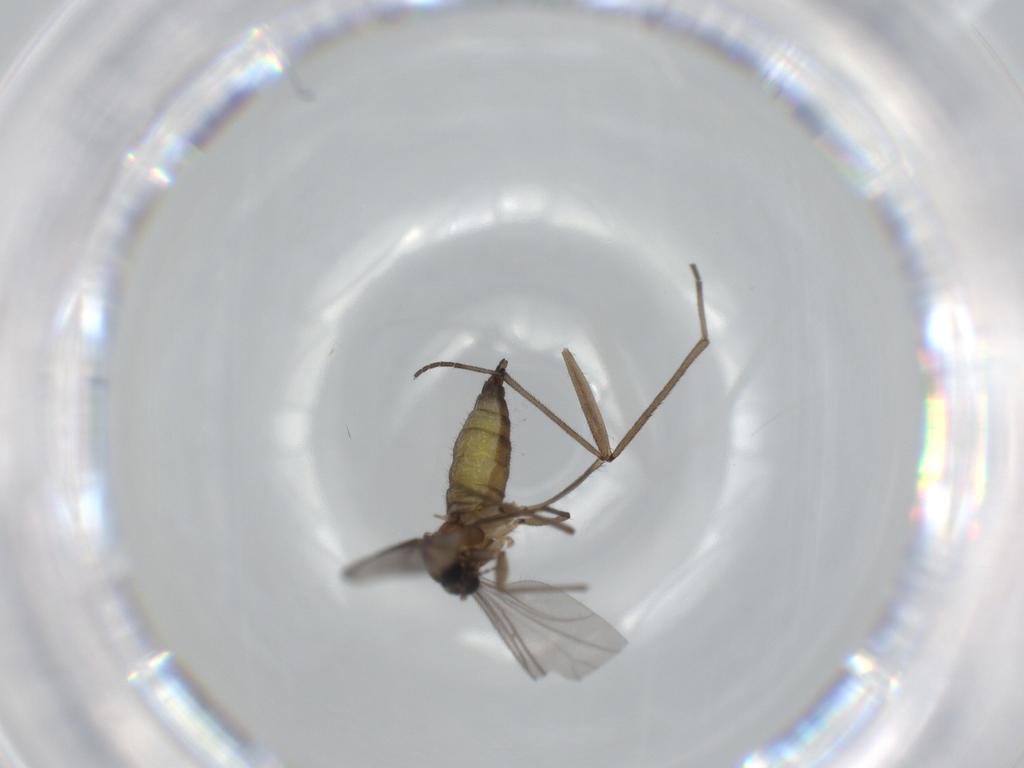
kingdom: Animalia
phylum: Arthropoda
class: Insecta
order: Diptera
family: Sciaridae
